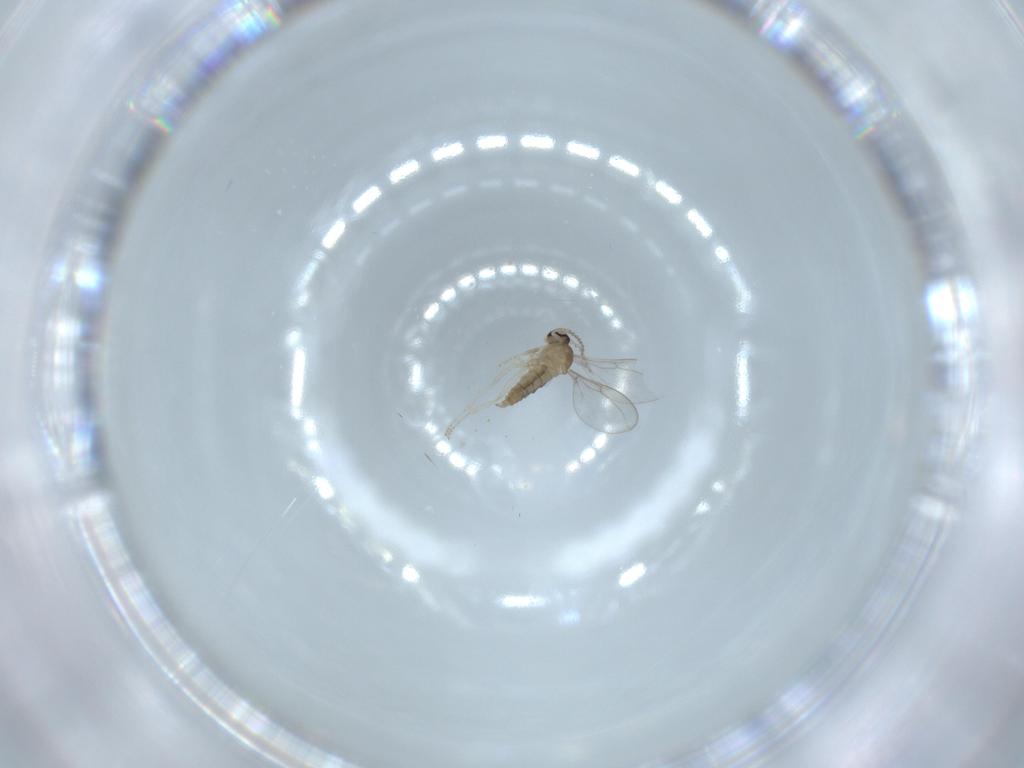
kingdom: Animalia
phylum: Arthropoda
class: Insecta
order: Diptera
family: Cecidomyiidae
